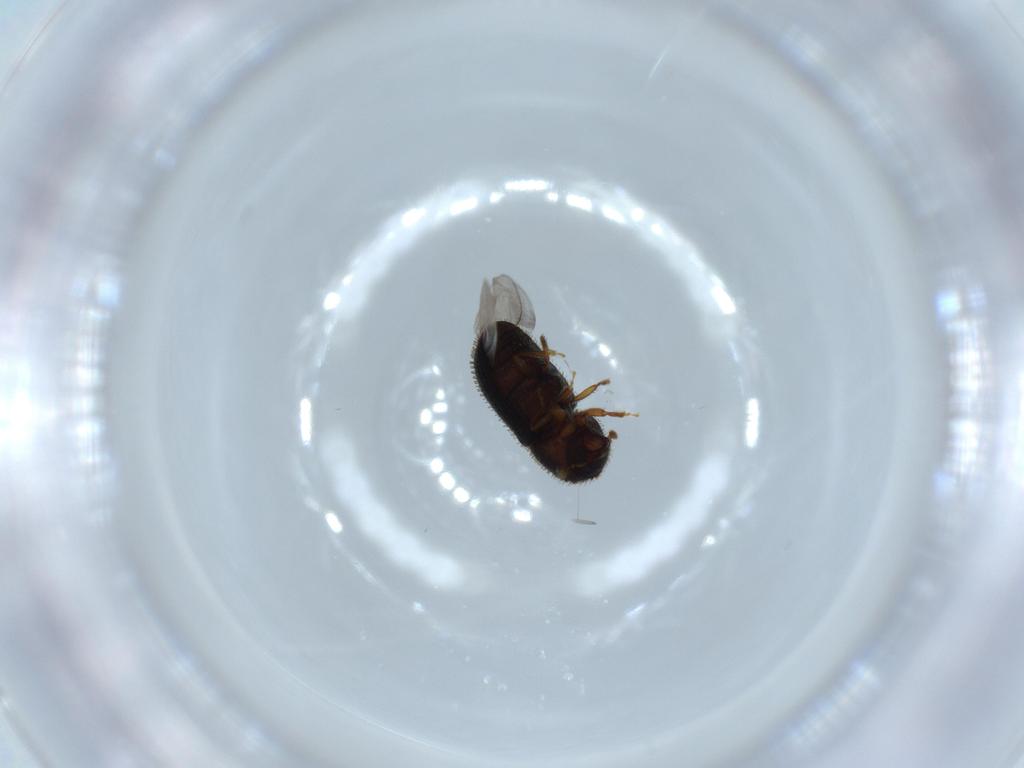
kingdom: Animalia
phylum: Arthropoda
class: Insecta
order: Coleoptera
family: Curculionidae
